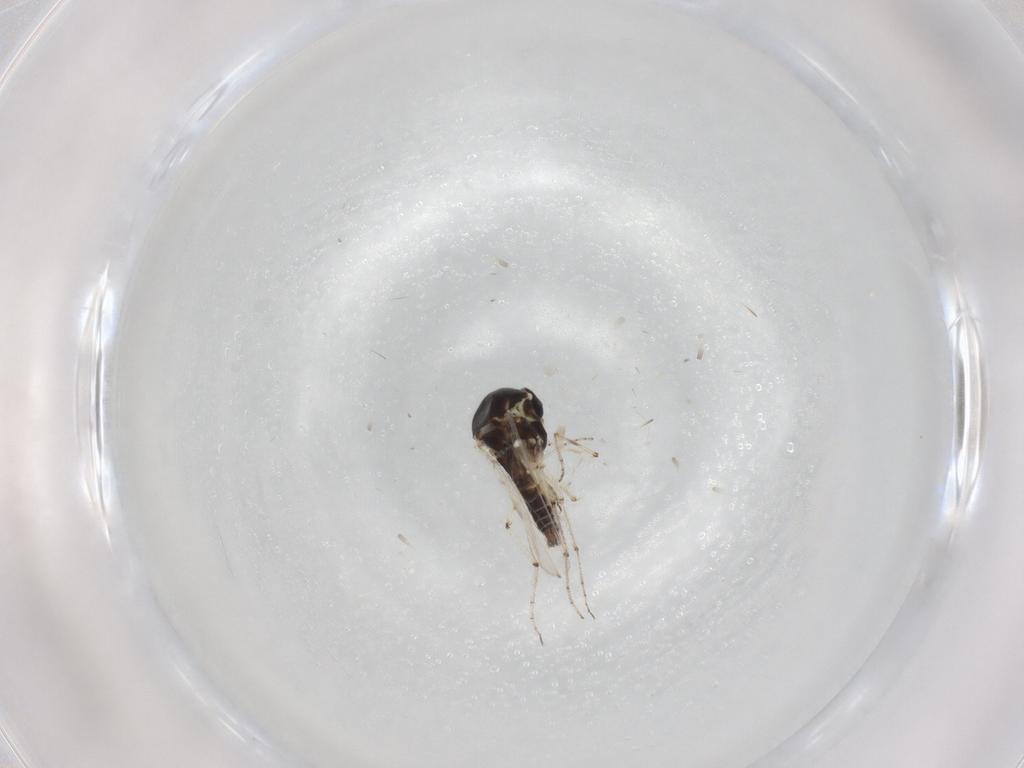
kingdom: Animalia
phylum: Arthropoda
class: Insecta
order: Diptera
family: Ceratopogonidae
